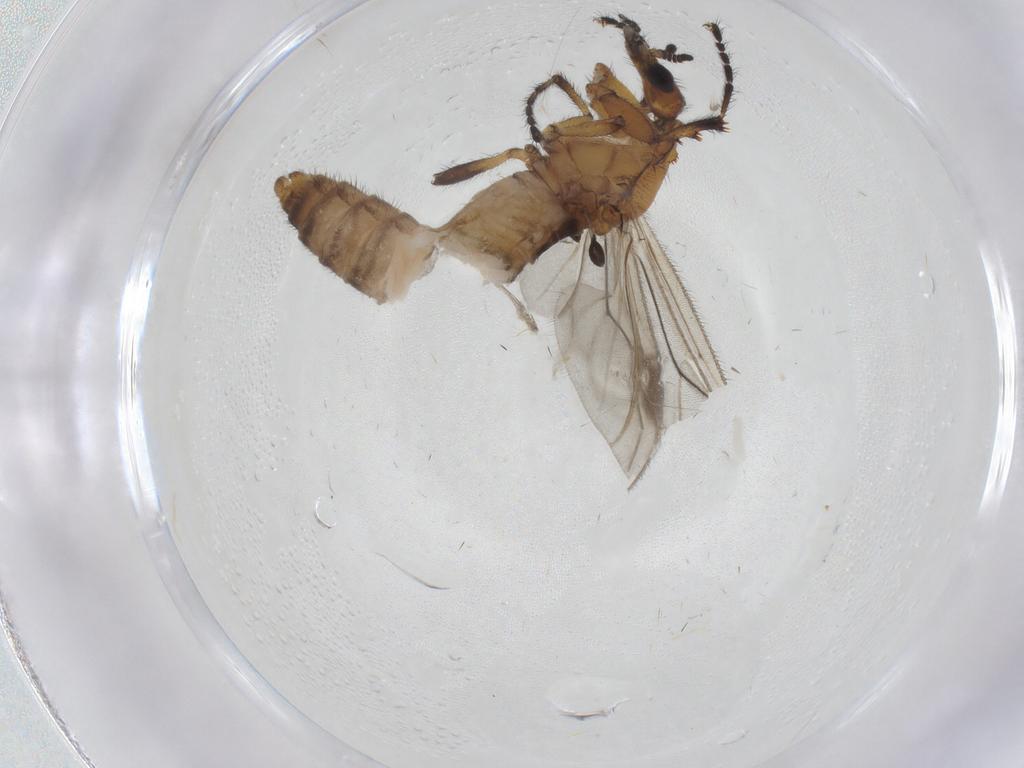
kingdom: Animalia
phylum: Arthropoda
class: Insecta
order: Diptera
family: Bibionidae
